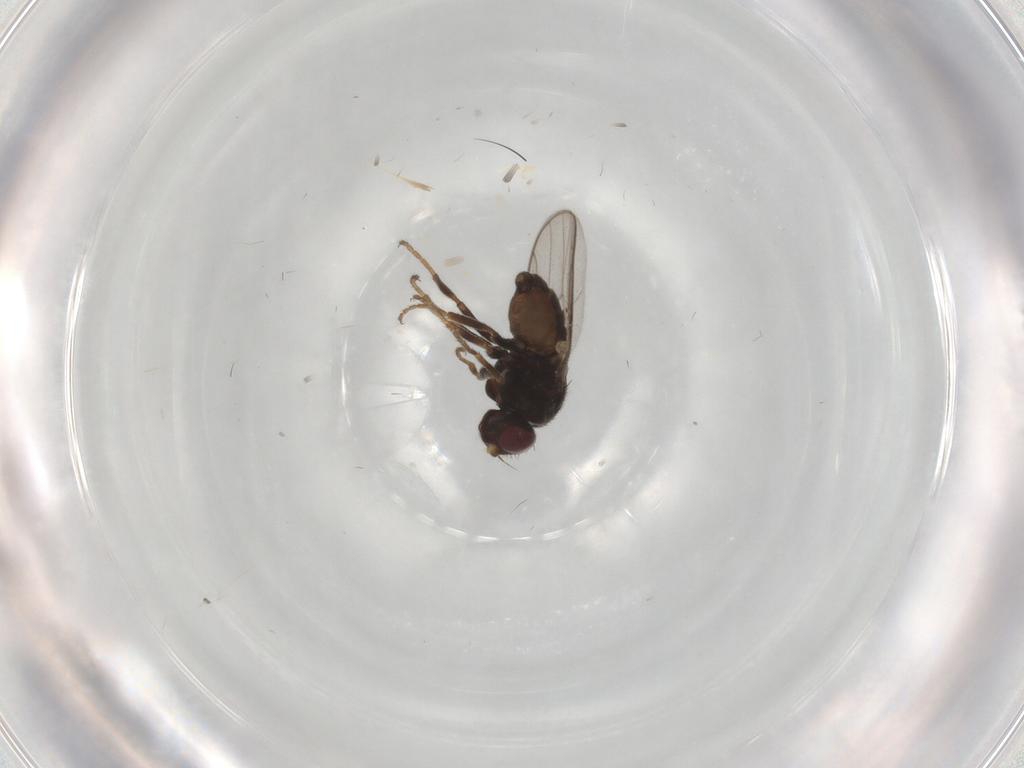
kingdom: Animalia
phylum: Arthropoda
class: Insecta
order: Diptera
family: Chloropidae
